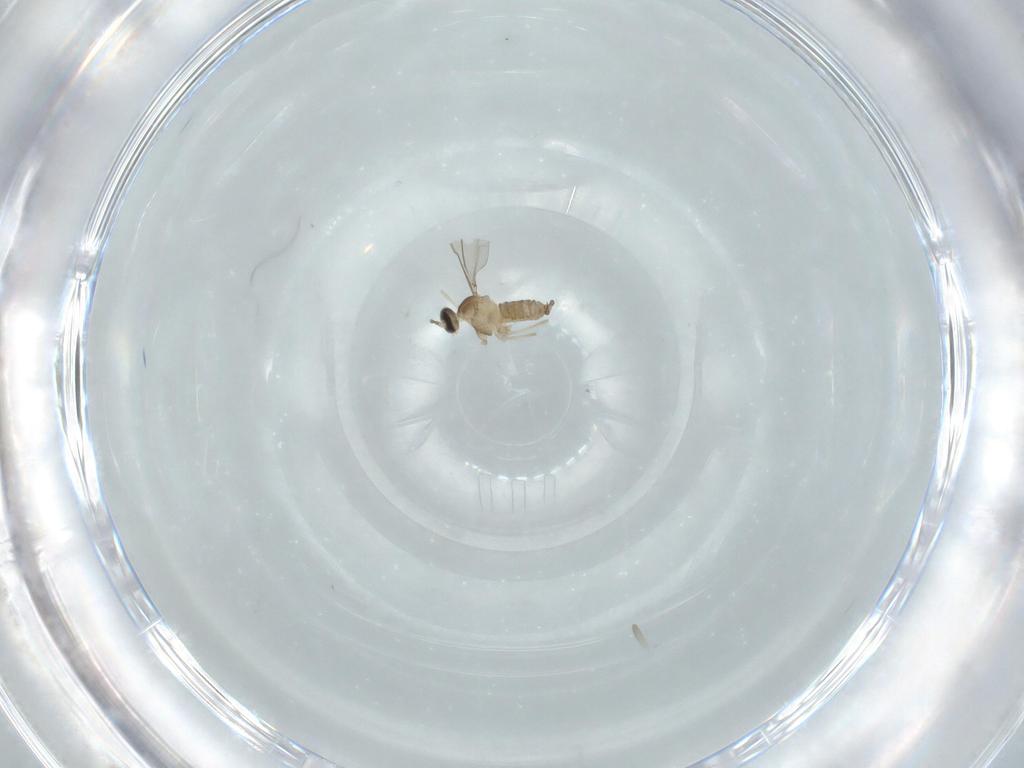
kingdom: Animalia
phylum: Arthropoda
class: Insecta
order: Diptera
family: Cecidomyiidae
